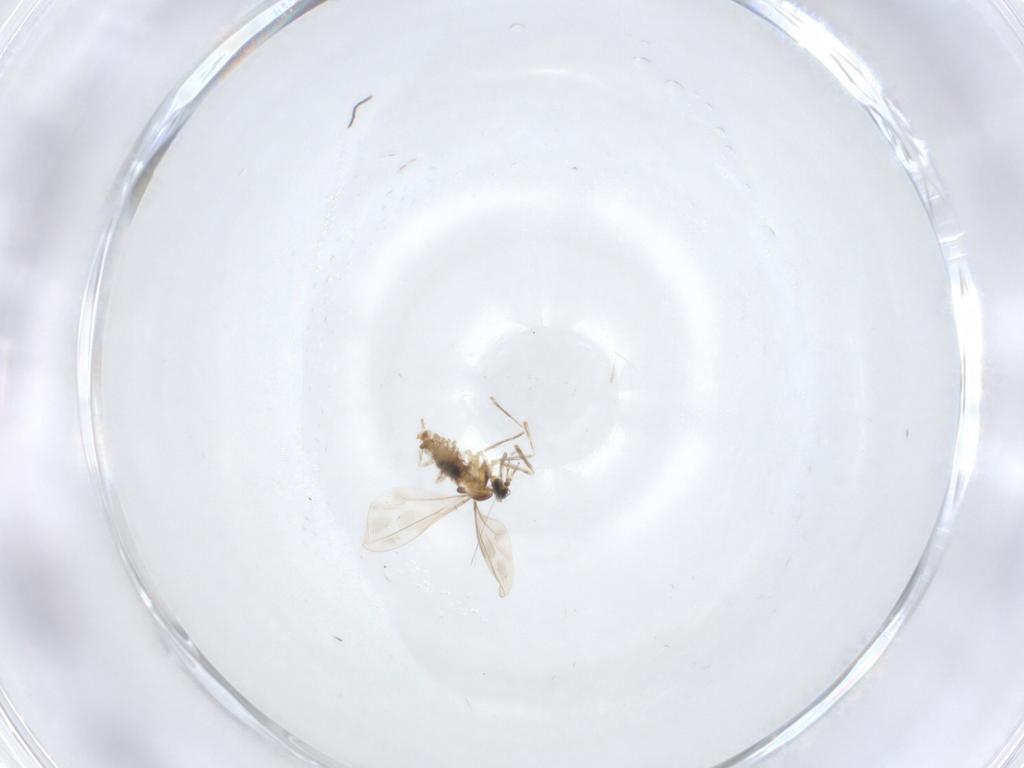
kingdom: Animalia
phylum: Arthropoda
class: Insecta
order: Diptera
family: Cecidomyiidae
